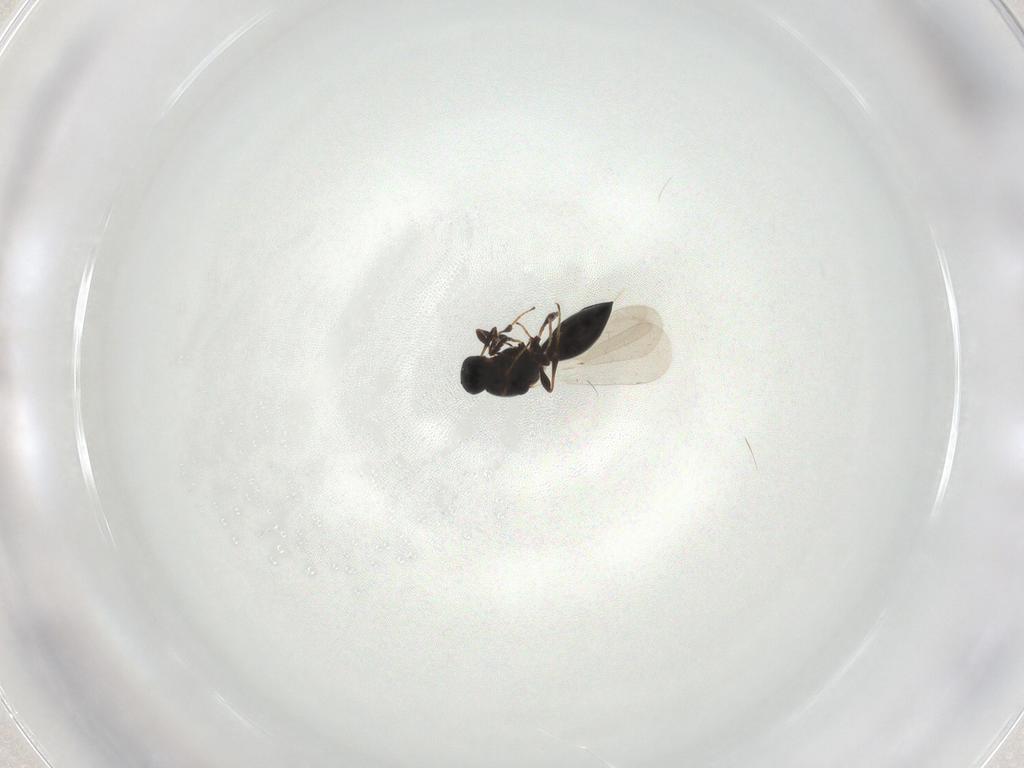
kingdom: Animalia
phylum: Arthropoda
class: Insecta
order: Hymenoptera
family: Platygastridae
